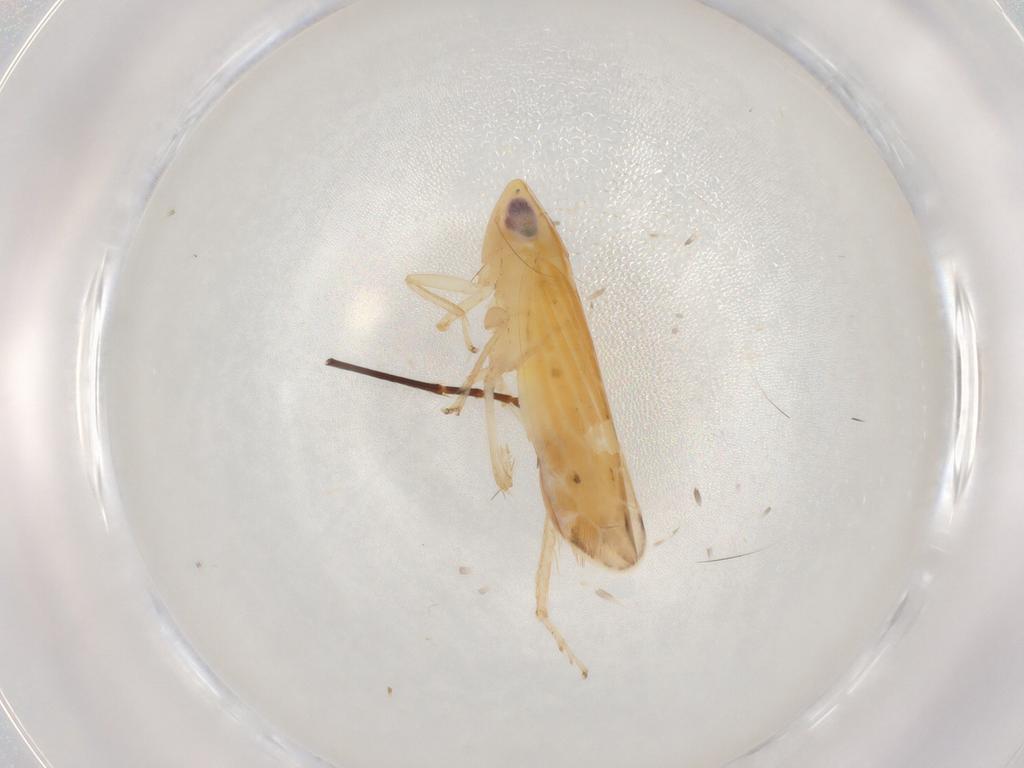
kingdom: Animalia
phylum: Arthropoda
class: Insecta
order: Hemiptera
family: Cicadellidae
